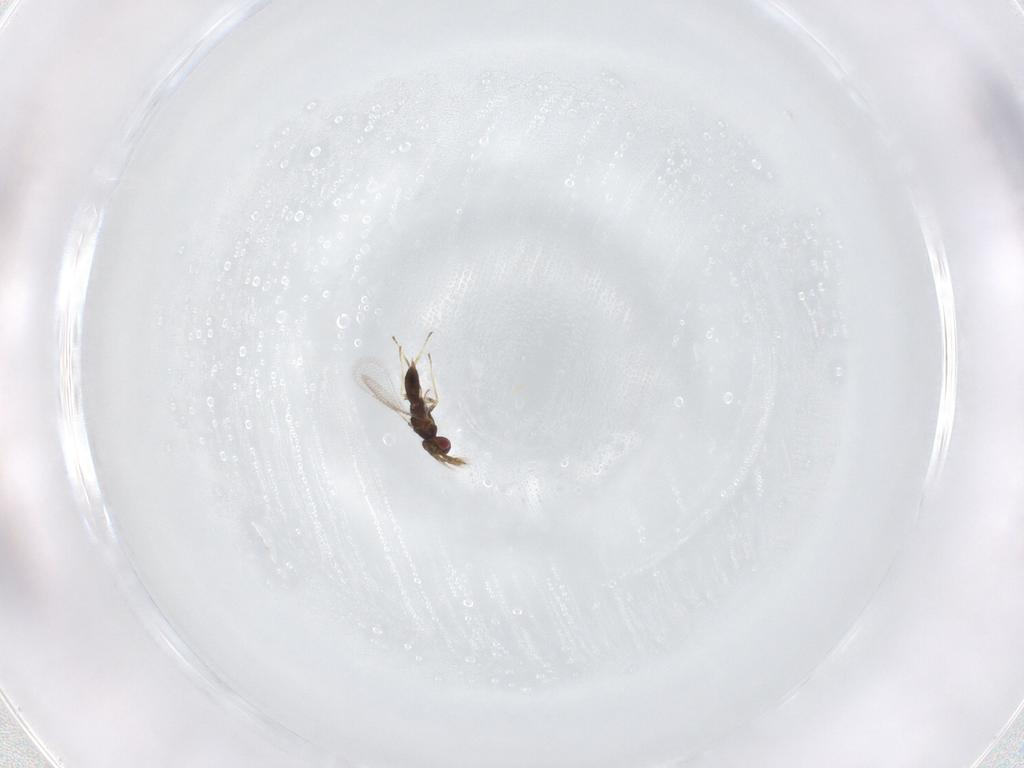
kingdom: Animalia
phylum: Arthropoda
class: Insecta
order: Hymenoptera
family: Eulophidae
